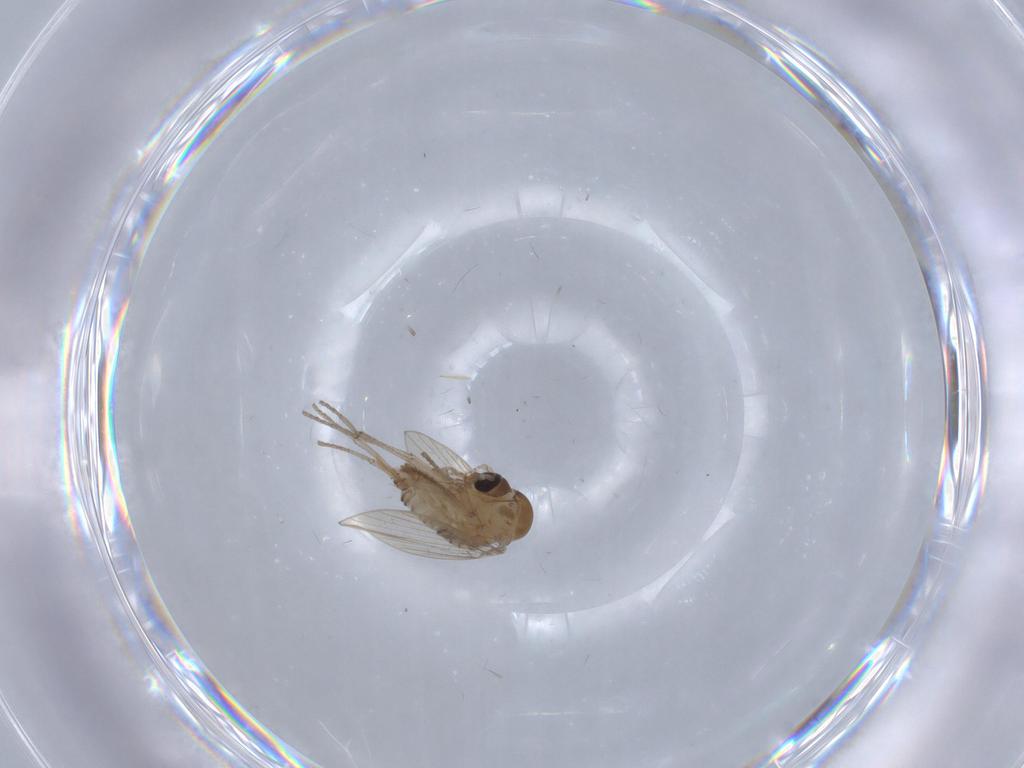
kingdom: Animalia
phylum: Arthropoda
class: Insecta
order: Diptera
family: Psychodidae
